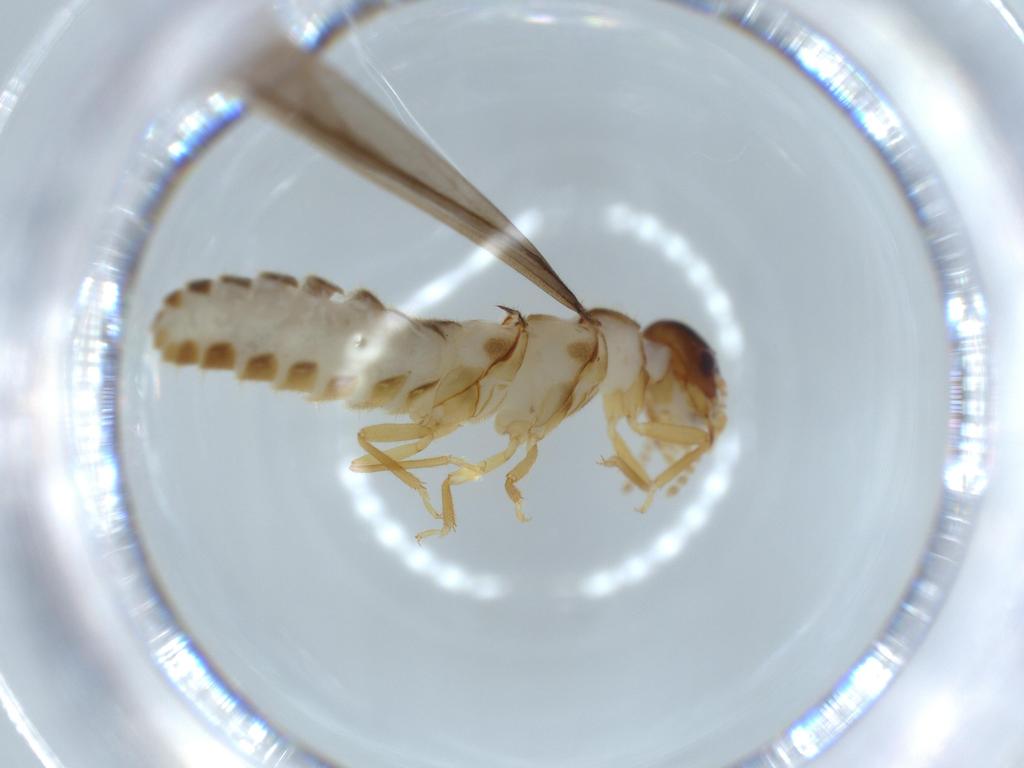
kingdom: Animalia
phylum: Arthropoda
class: Insecta
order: Blattodea
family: Termitidae
